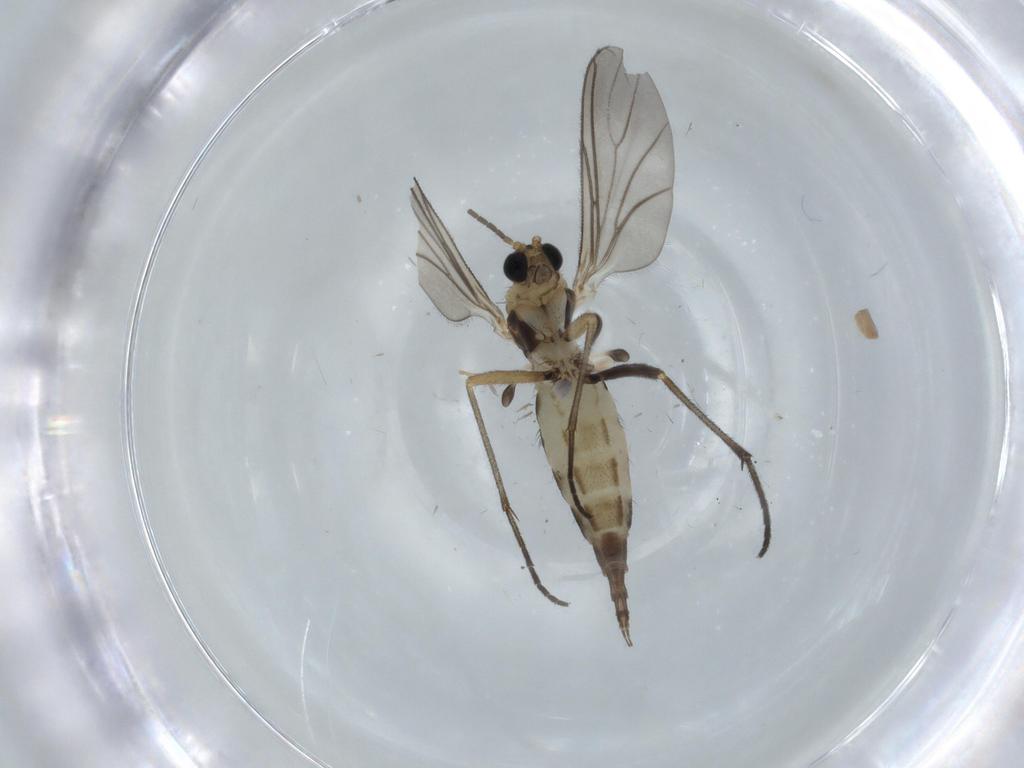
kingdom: Animalia
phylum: Arthropoda
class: Insecta
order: Diptera
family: Sciaridae
